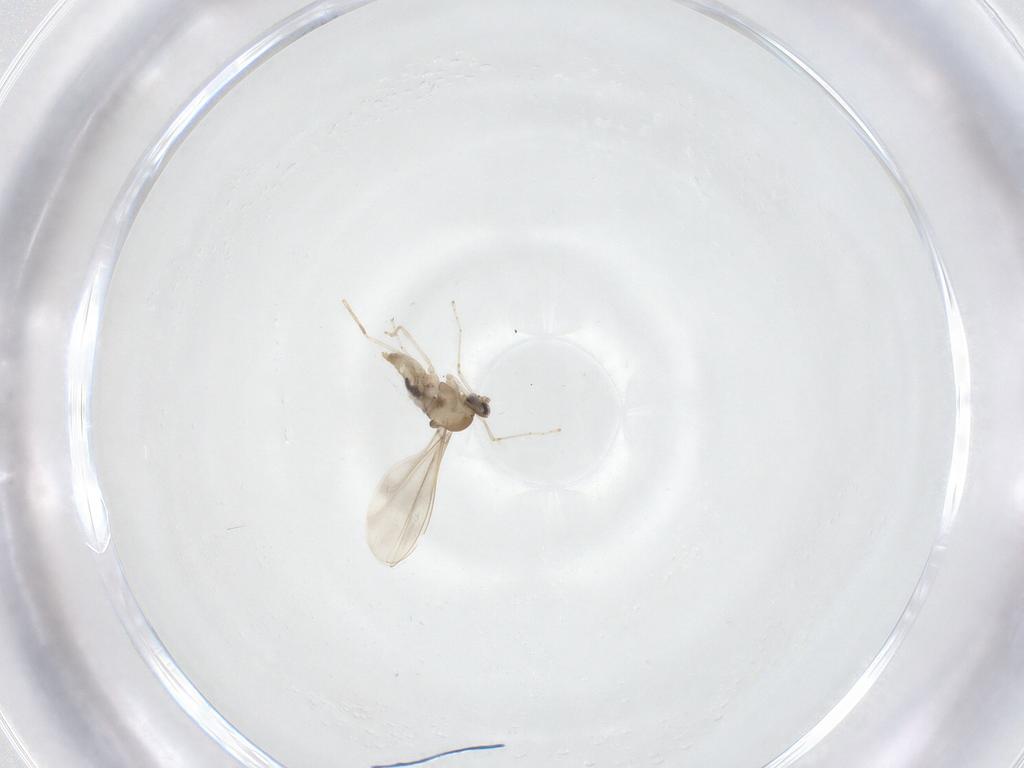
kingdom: Animalia
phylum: Arthropoda
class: Insecta
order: Diptera
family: Cecidomyiidae
